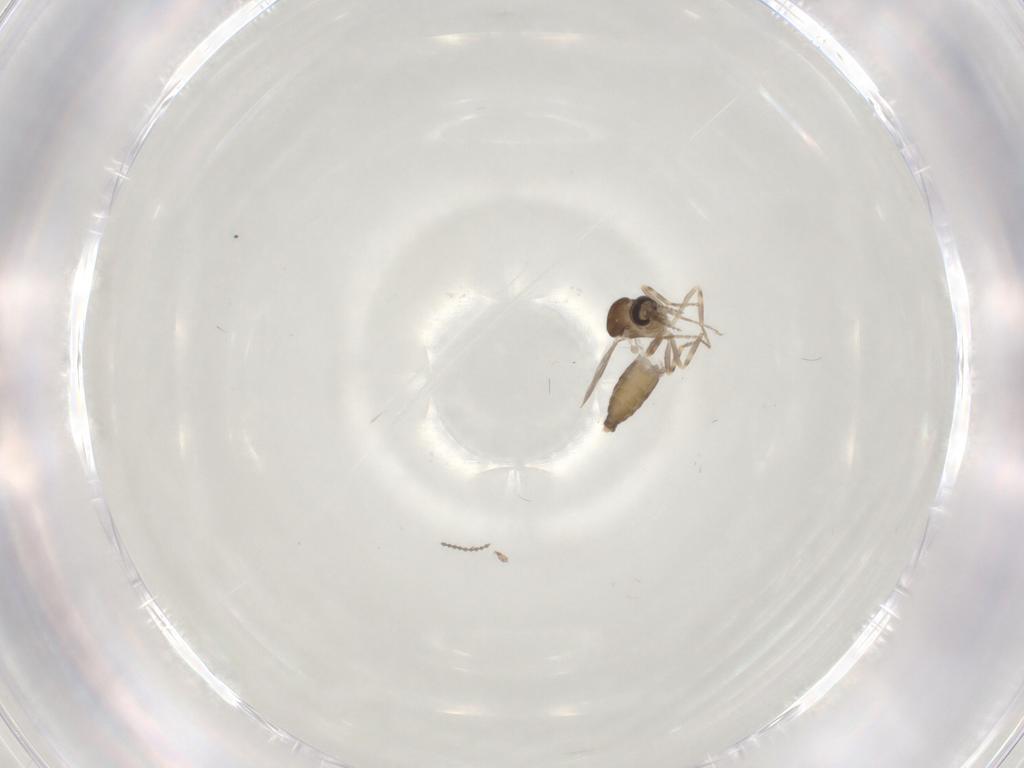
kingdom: Animalia
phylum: Arthropoda
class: Insecta
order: Diptera
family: Ceratopogonidae
